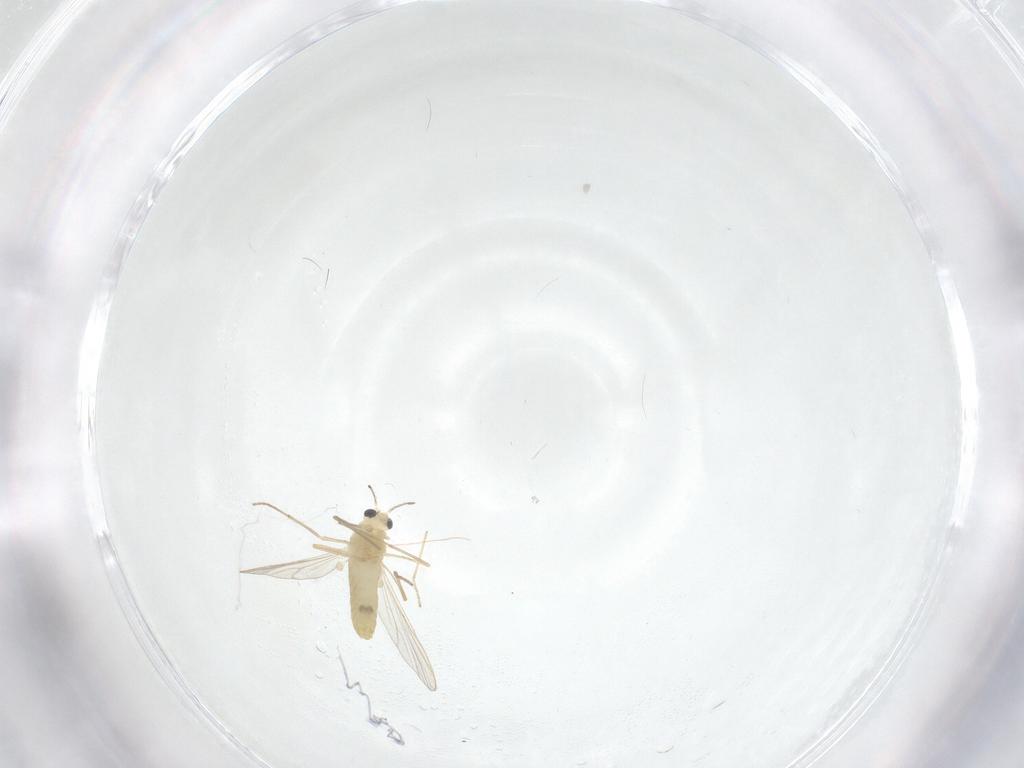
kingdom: Animalia
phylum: Arthropoda
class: Insecta
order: Diptera
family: Chironomidae
